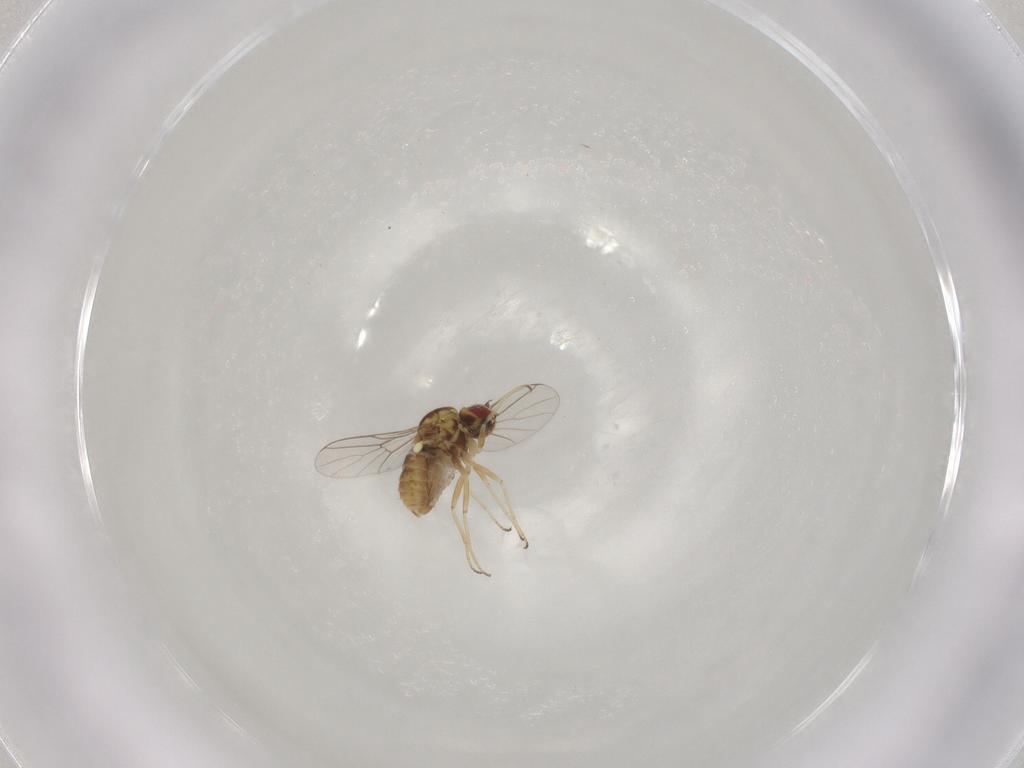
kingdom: Animalia
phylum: Arthropoda
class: Insecta
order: Diptera
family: Mythicomyiidae
